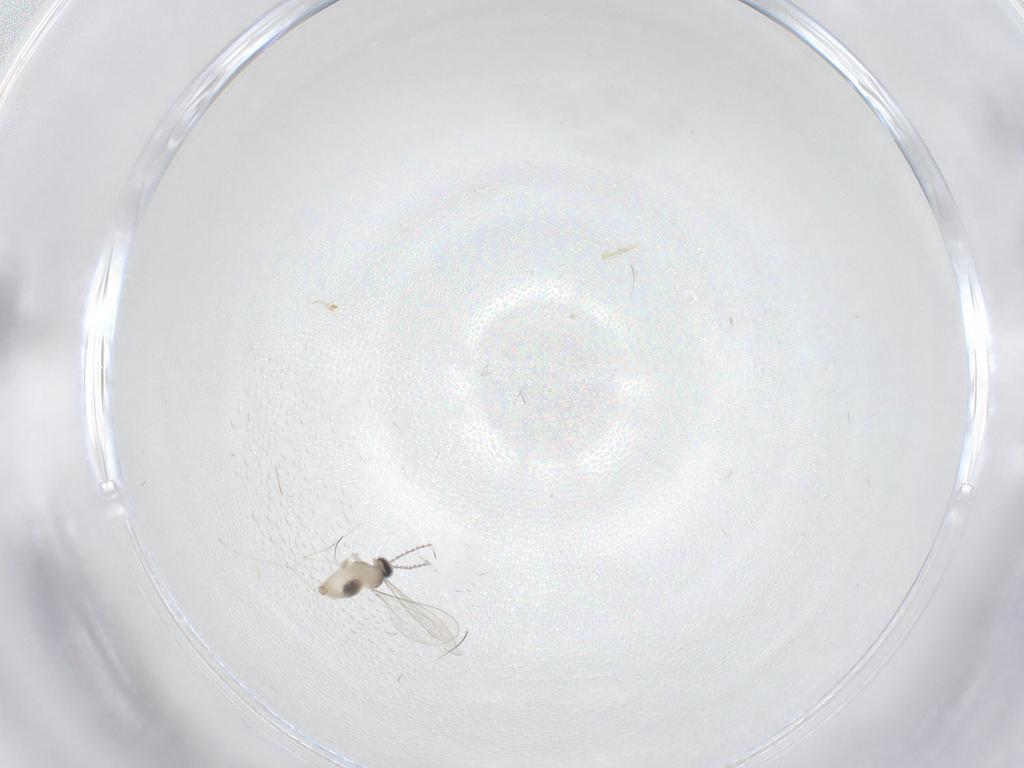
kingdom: Animalia
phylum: Arthropoda
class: Insecta
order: Diptera
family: Cecidomyiidae
